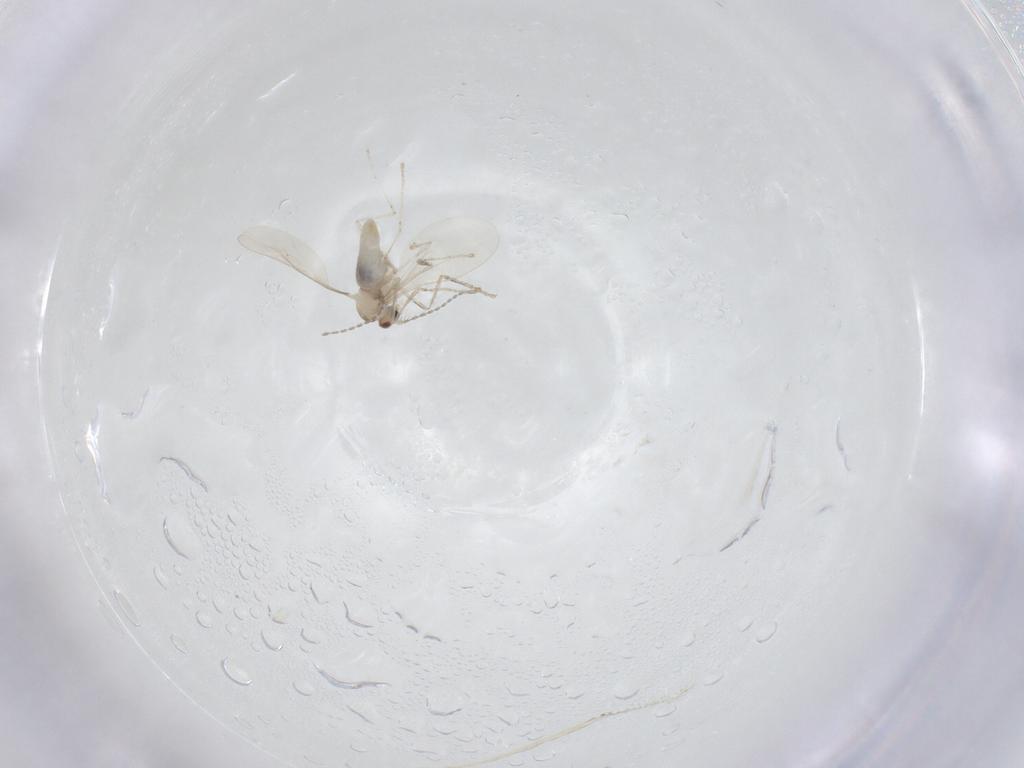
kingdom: Animalia
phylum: Arthropoda
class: Insecta
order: Diptera
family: Cecidomyiidae
